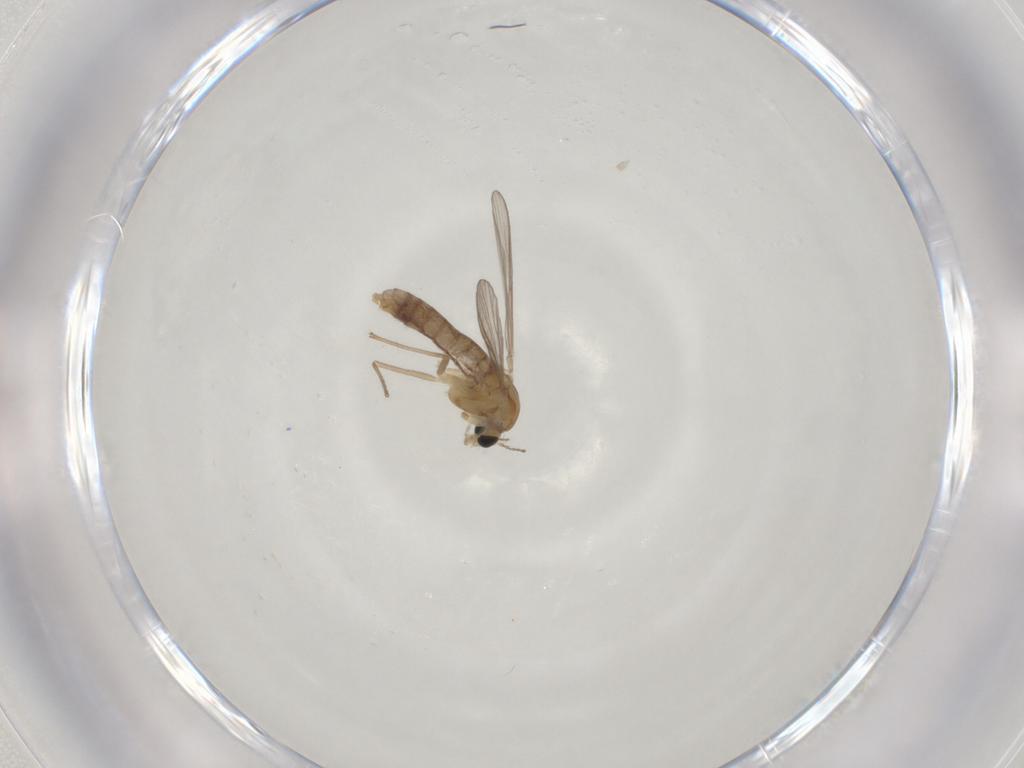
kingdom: Animalia
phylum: Arthropoda
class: Insecta
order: Diptera
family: Chironomidae
